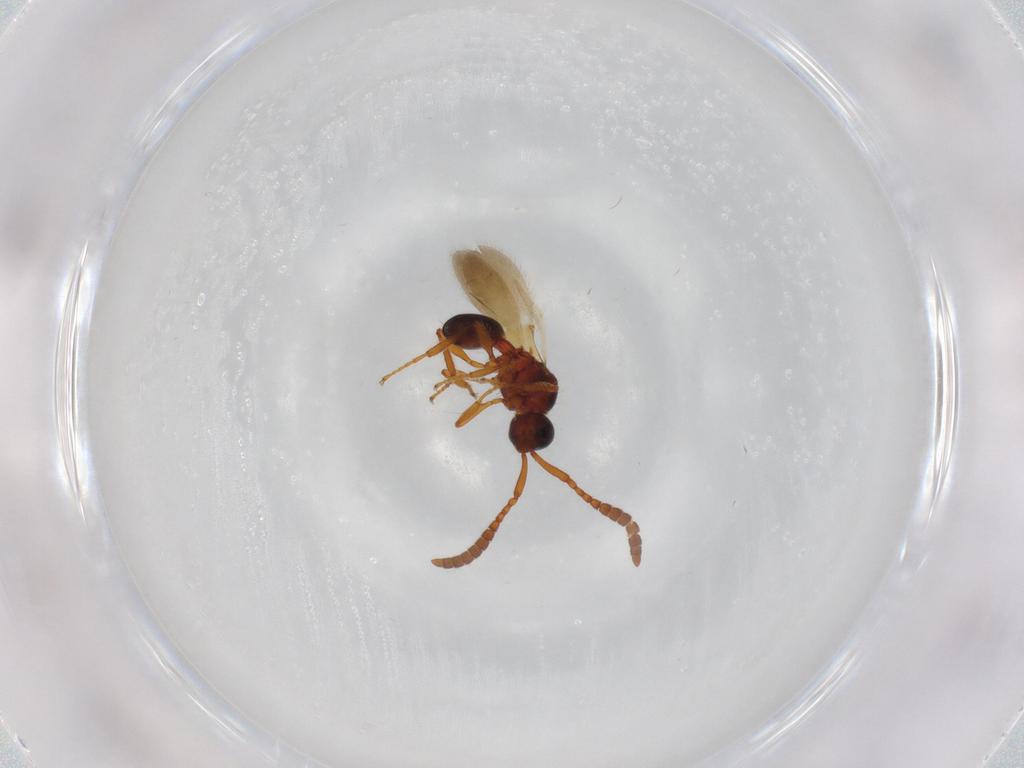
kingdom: Animalia
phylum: Arthropoda
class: Insecta
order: Hymenoptera
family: Diapriidae
